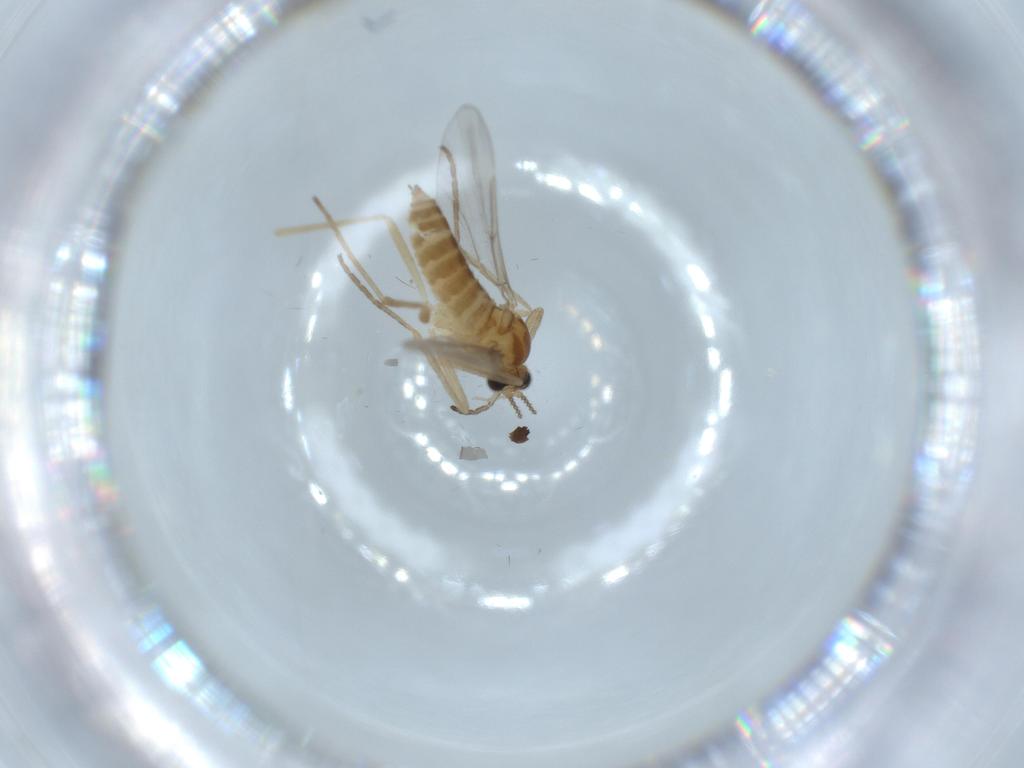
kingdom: Animalia
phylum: Arthropoda
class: Insecta
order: Diptera
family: Cecidomyiidae
